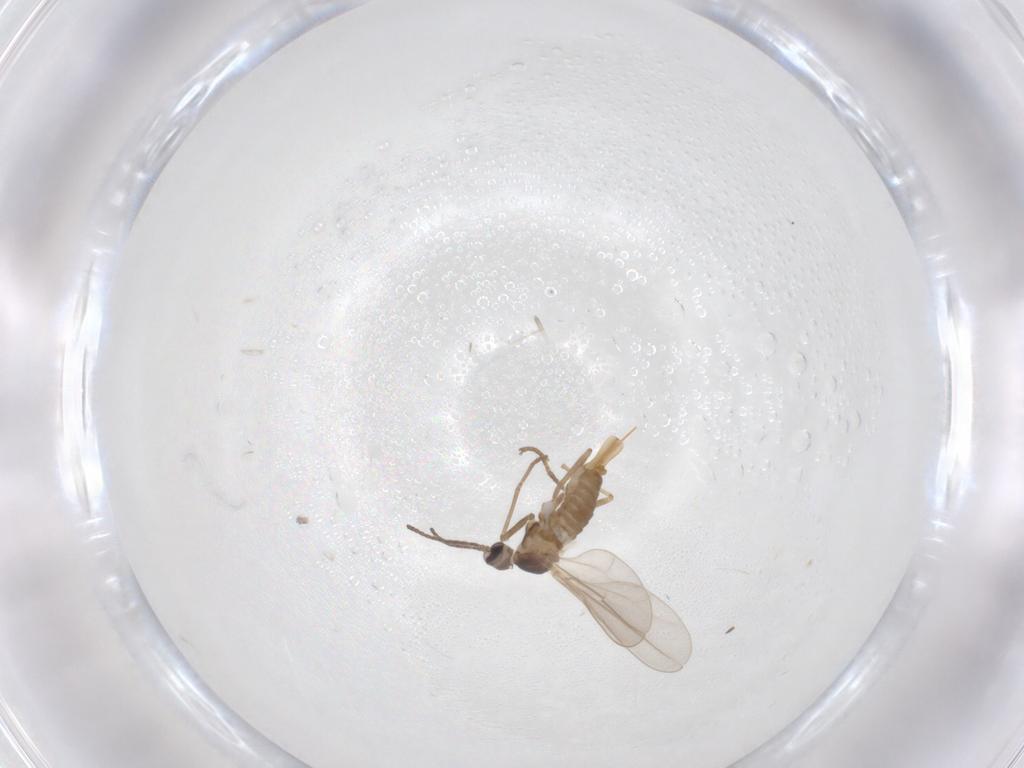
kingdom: Animalia
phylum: Arthropoda
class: Insecta
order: Diptera
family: Cecidomyiidae
